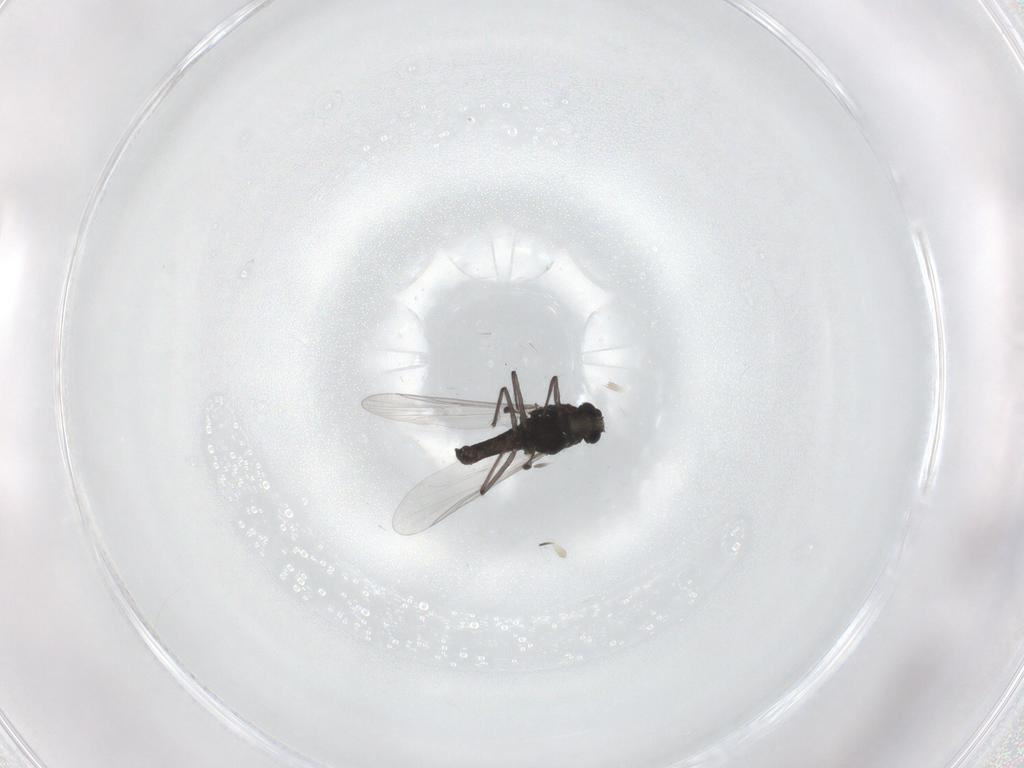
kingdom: Animalia
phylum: Arthropoda
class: Insecta
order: Diptera
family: Chironomidae
